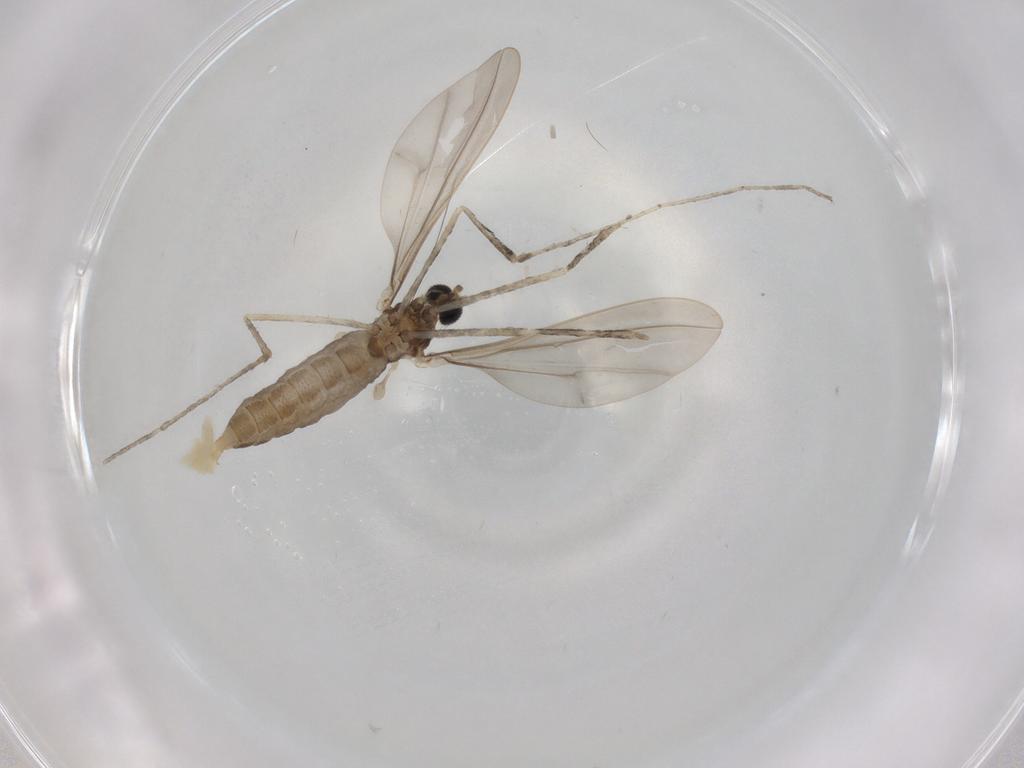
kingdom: Animalia
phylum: Arthropoda
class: Insecta
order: Diptera
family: Cecidomyiidae
